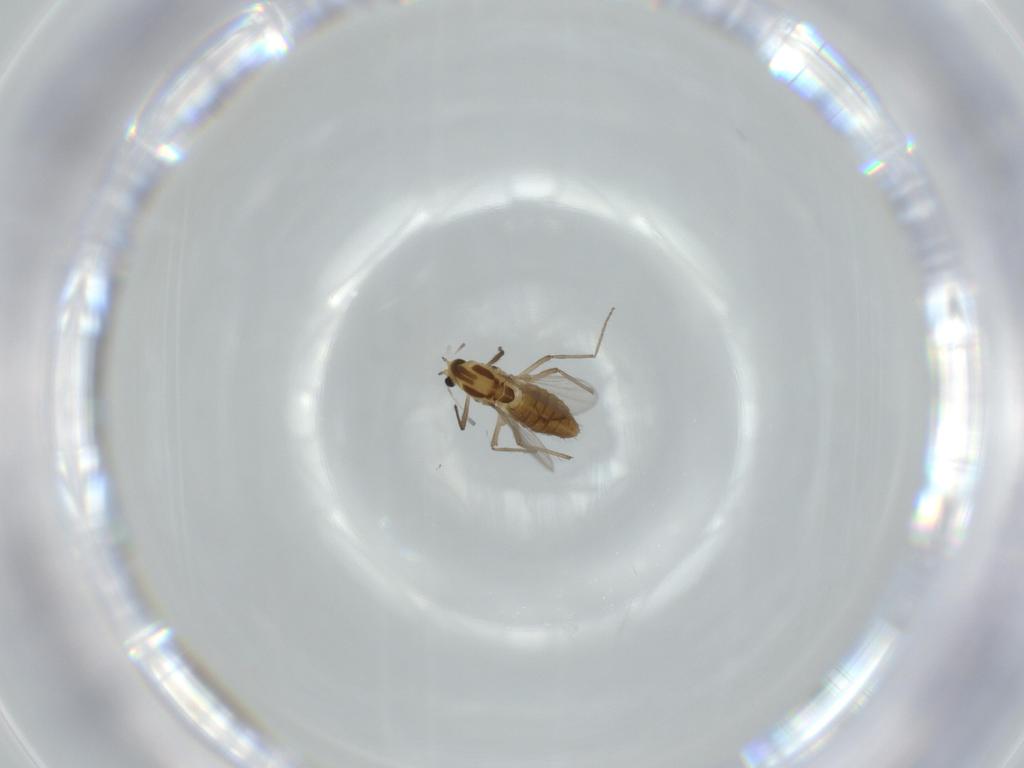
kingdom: Animalia
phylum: Arthropoda
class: Insecta
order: Diptera
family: Chironomidae
